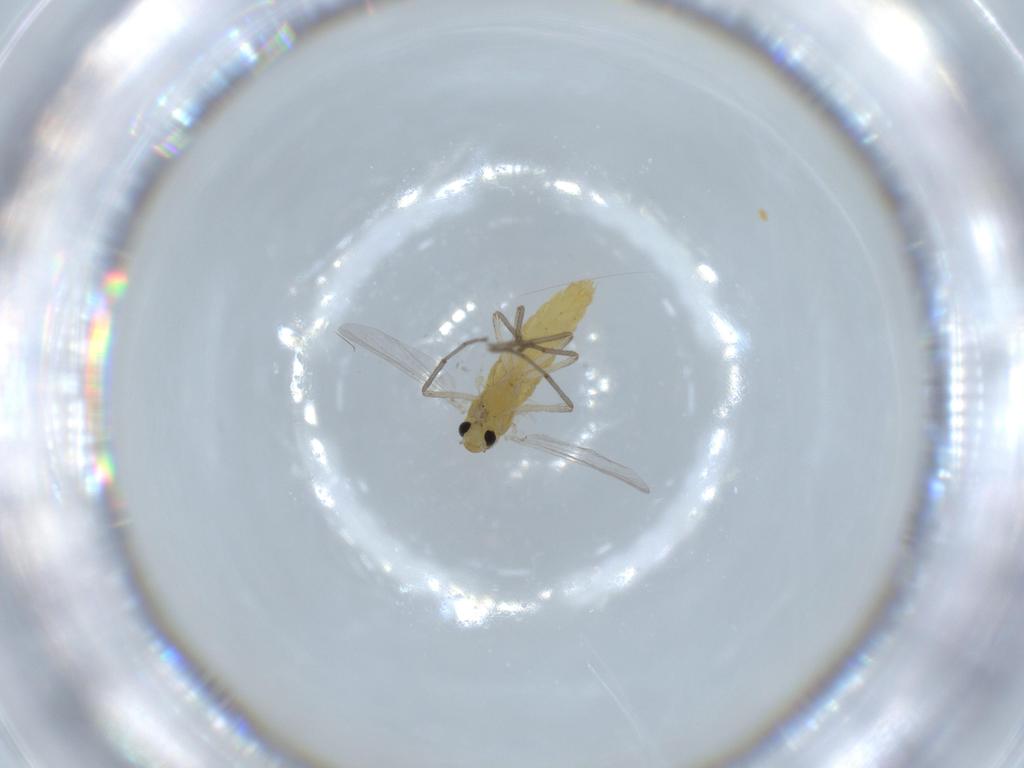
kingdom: Animalia
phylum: Arthropoda
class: Insecta
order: Diptera
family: Chironomidae
